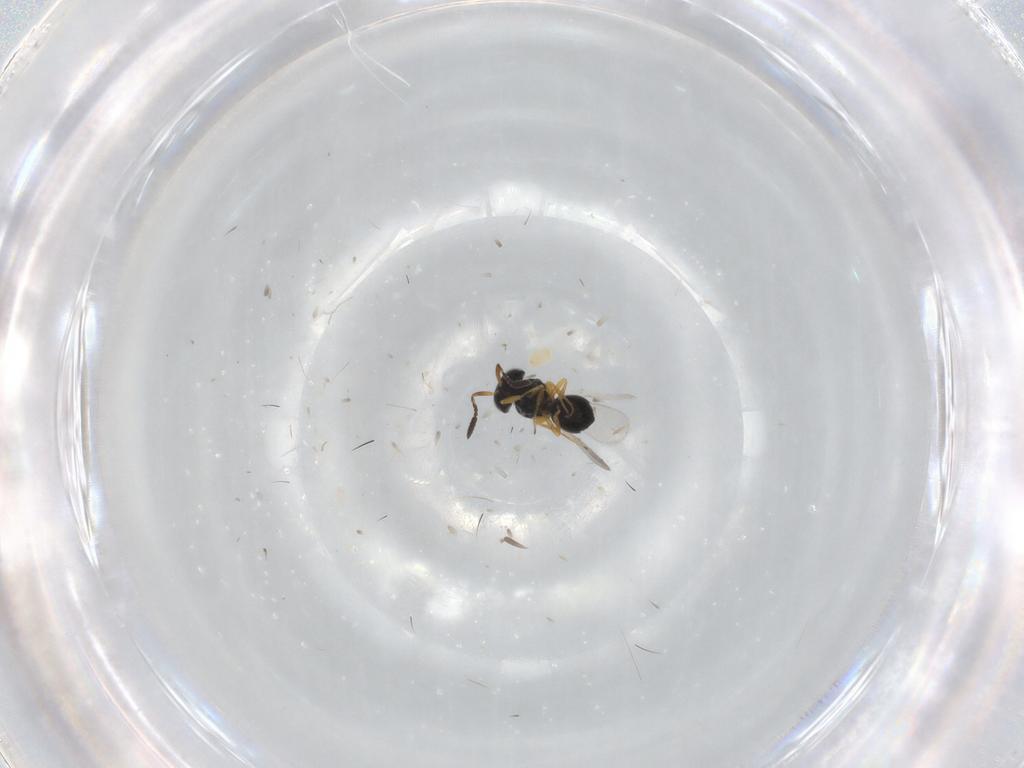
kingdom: Animalia
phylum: Arthropoda
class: Insecta
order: Hymenoptera
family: Scelionidae
